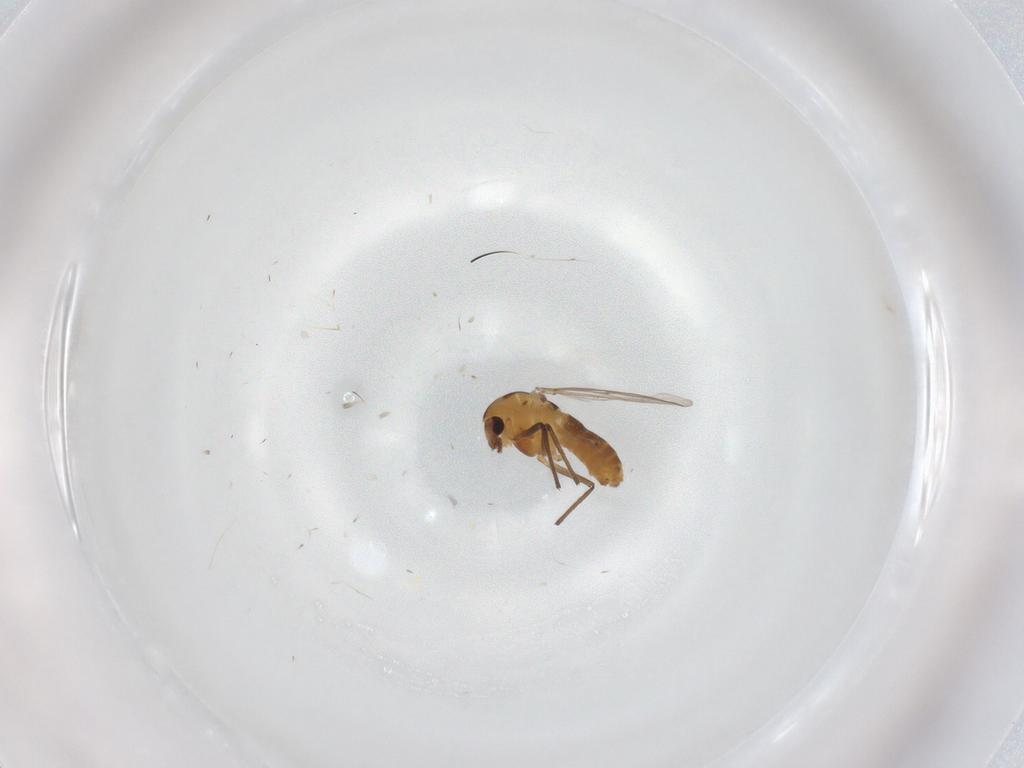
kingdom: Animalia
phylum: Arthropoda
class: Insecta
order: Diptera
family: Chironomidae
